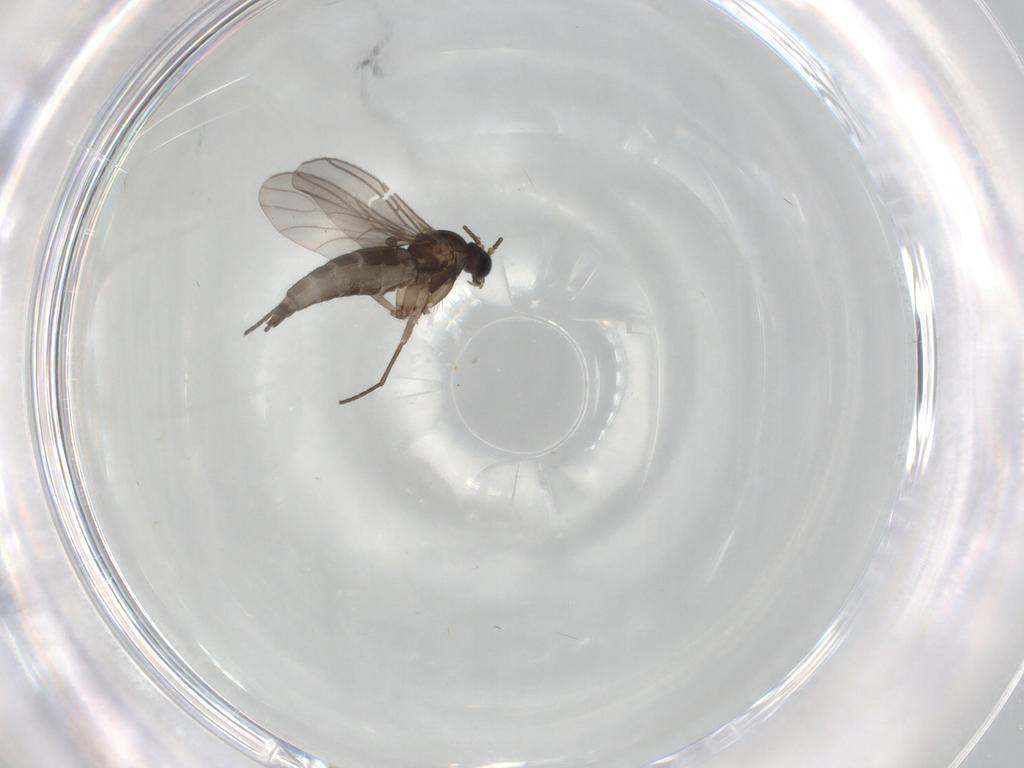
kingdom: Animalia
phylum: Arthropoda
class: Insecta
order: Diptera
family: Sciaridae
